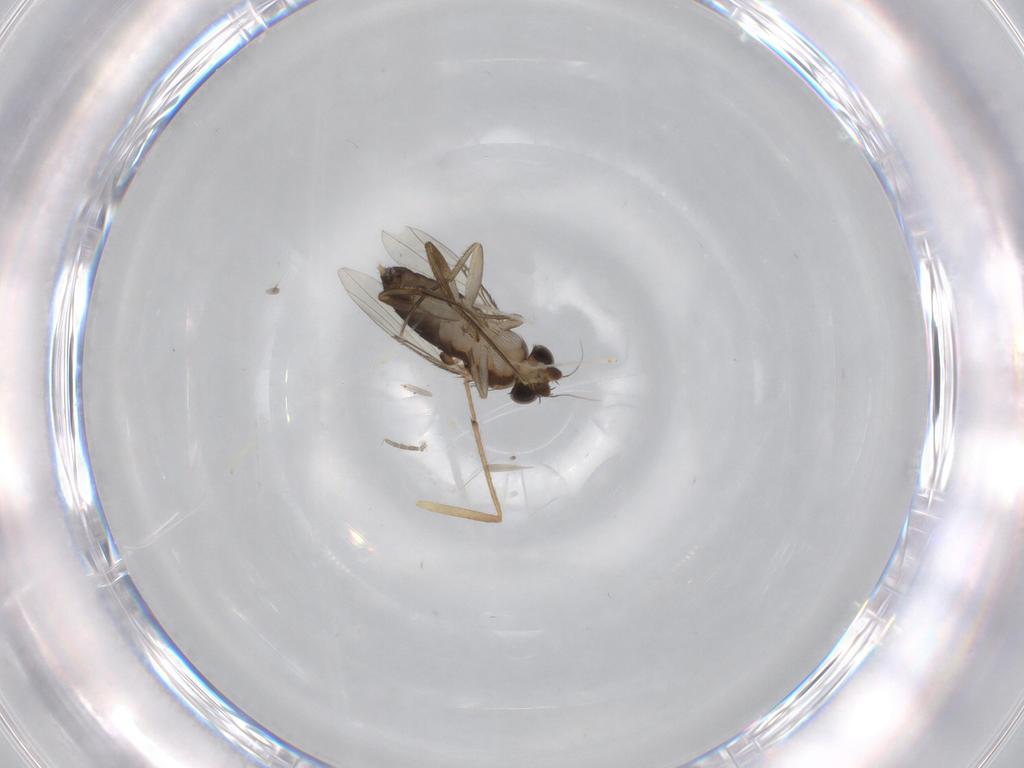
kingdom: Animalia
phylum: Arthropoda
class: Insecta
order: Diptera
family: Phoridae
